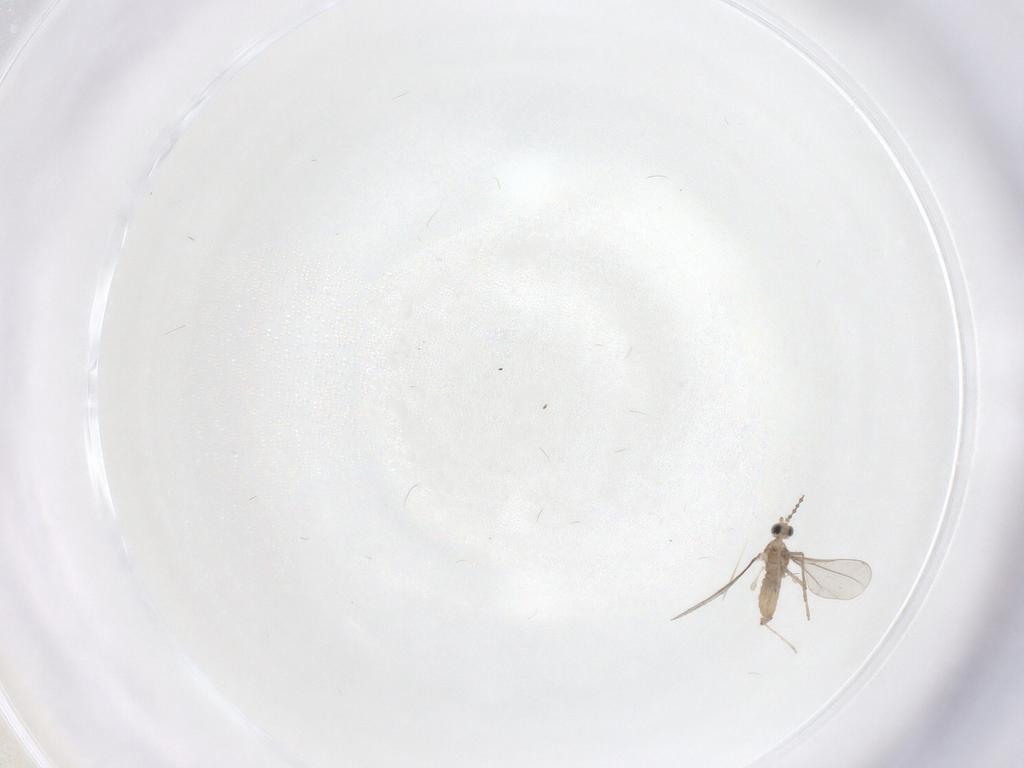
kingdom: Animalia
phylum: Arthropoda
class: Insecta
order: Diptera
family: Cecidomyiidae
